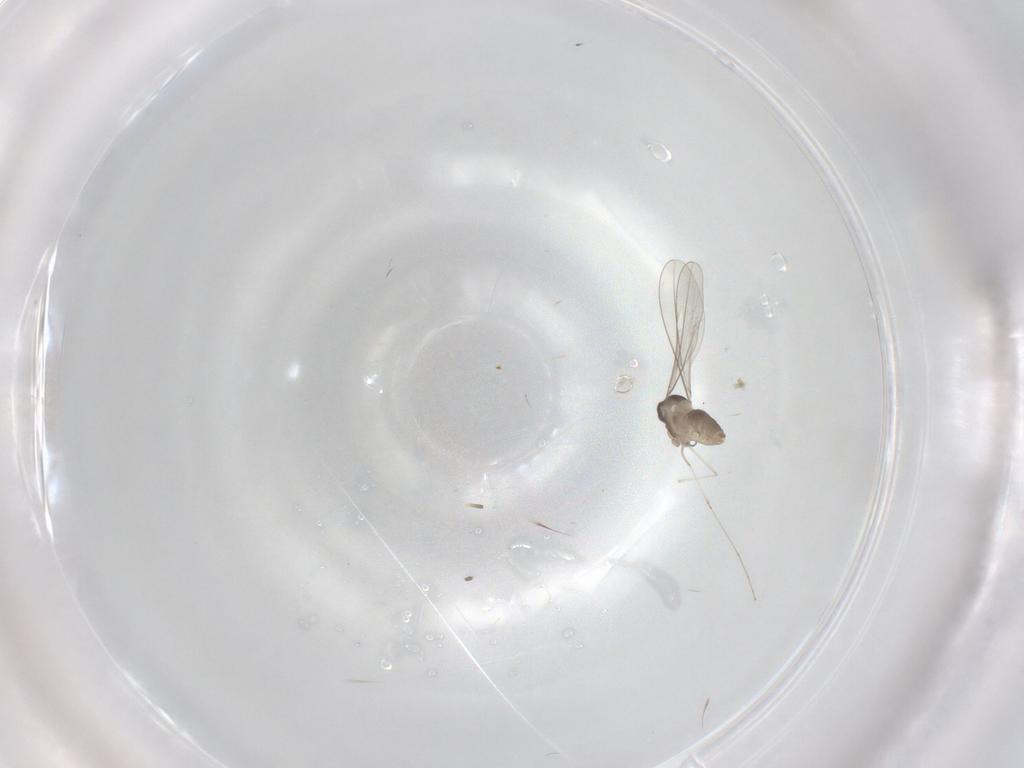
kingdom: Animalia
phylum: Arthropoda
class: Insecta
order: Diptera
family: Cecidomyiidae
